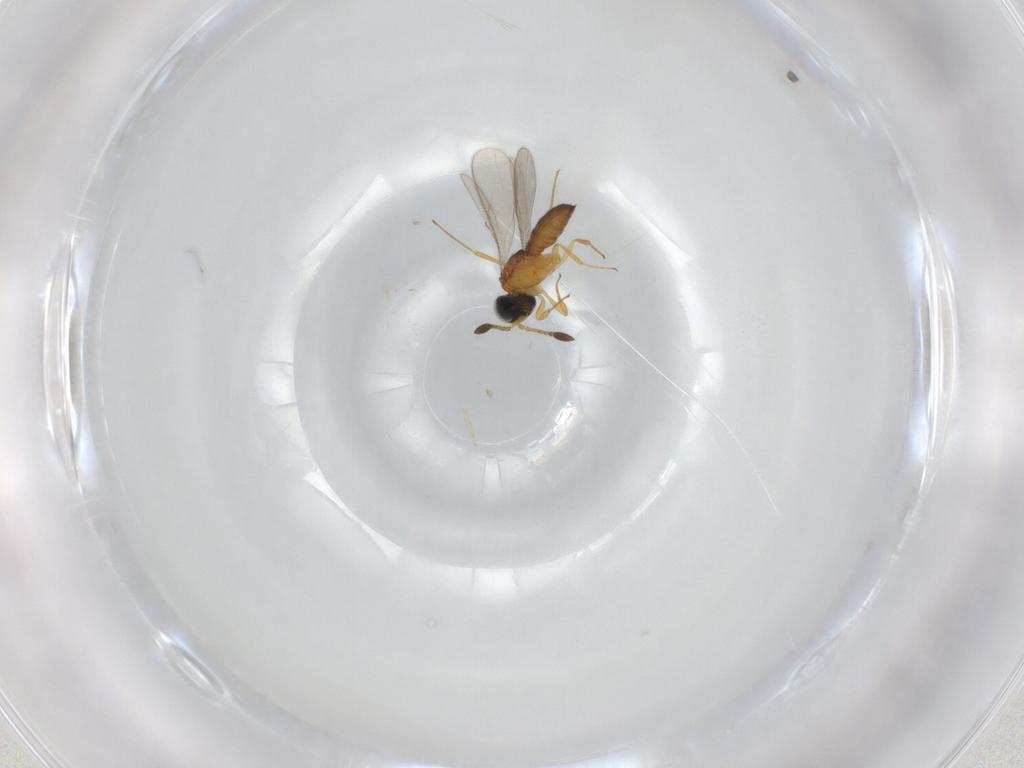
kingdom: Animalia
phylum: Arthropoda
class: Insecta
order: Hymenoptera
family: Scelionidae
